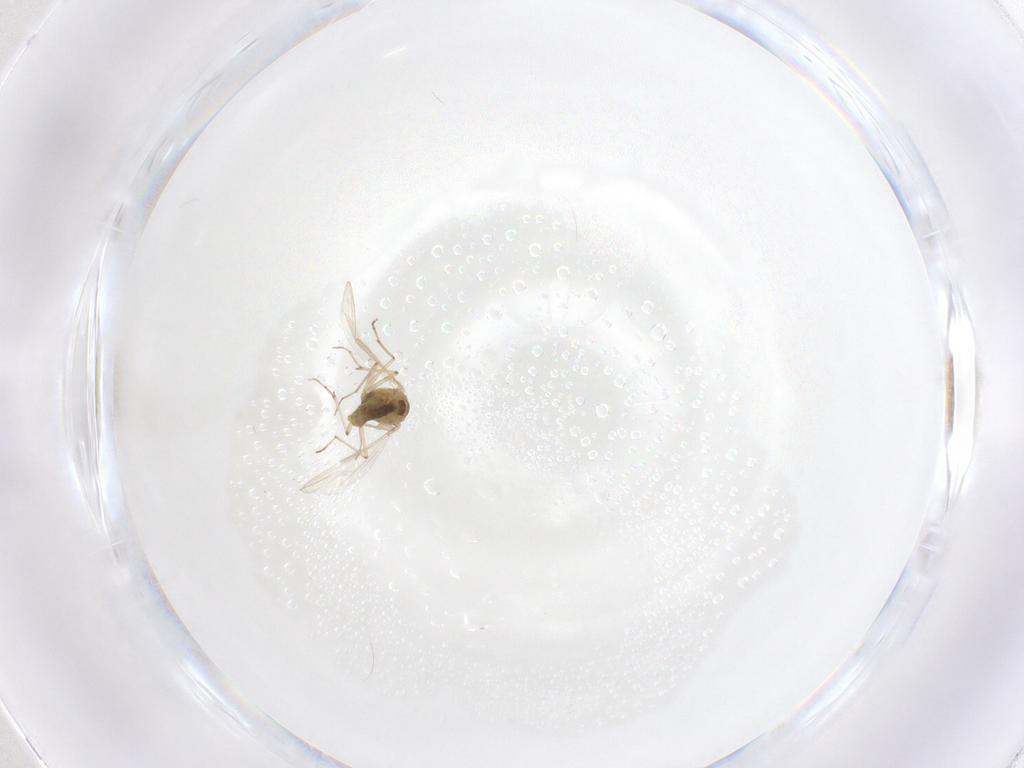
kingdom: Animalia
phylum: Arthropoda
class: Insecta
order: Diptera
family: Chironomidae
